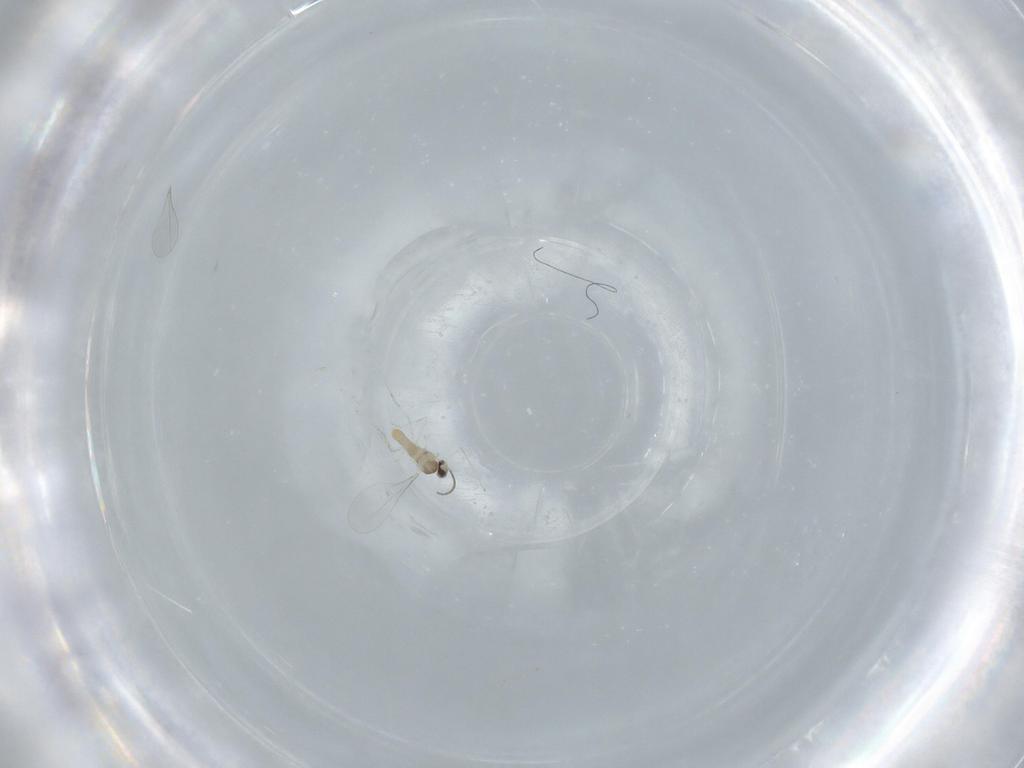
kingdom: Animalia
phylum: Arthropoda
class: Insecta
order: Diptera
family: Cecidomyiidae
